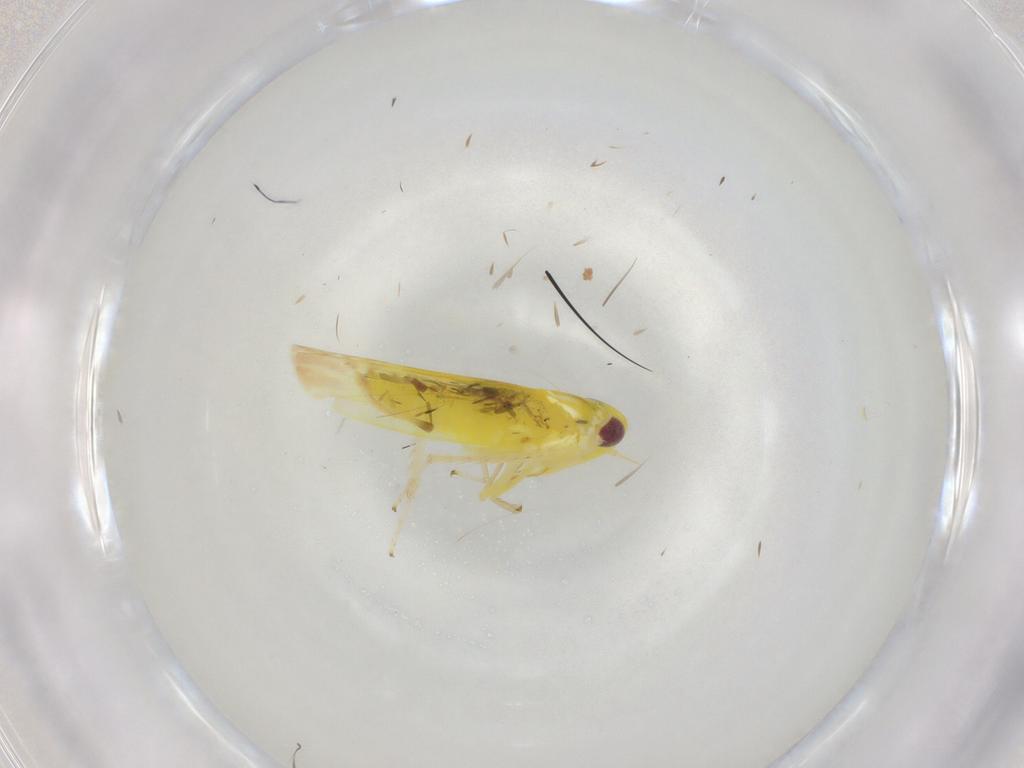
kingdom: Animalia
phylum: Arthropoda
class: Insecta
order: Hemiptera
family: Cicadellidae
